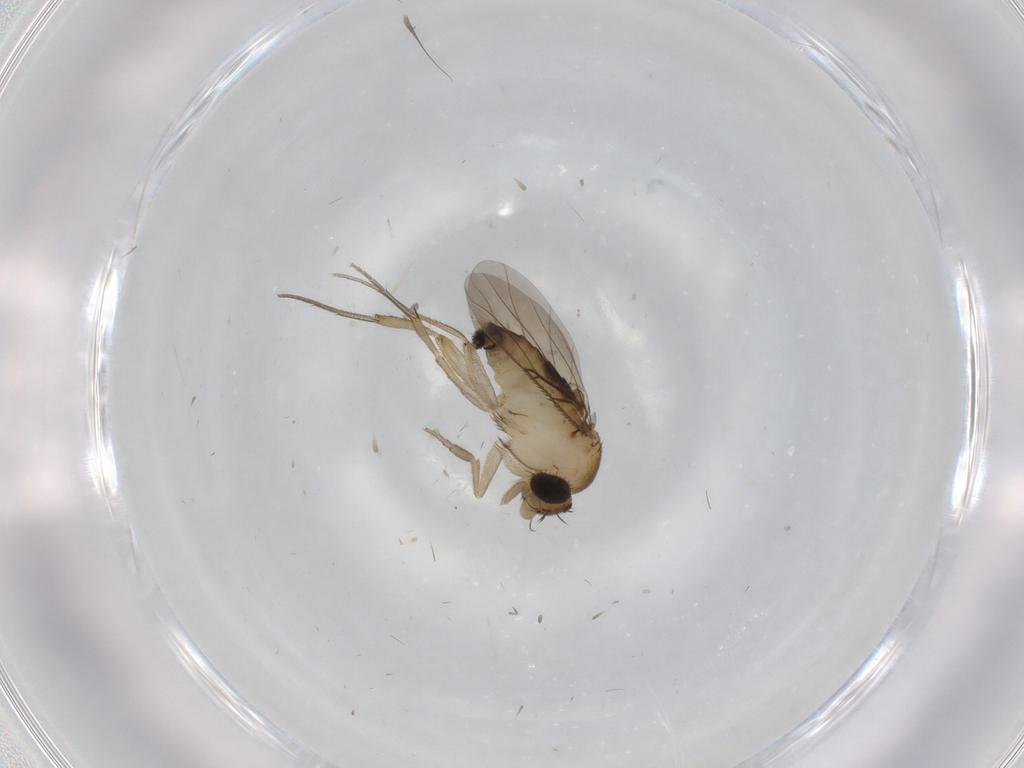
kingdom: Animalia
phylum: Arthropoda
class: Insecta
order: Diptera
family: Phoridae
